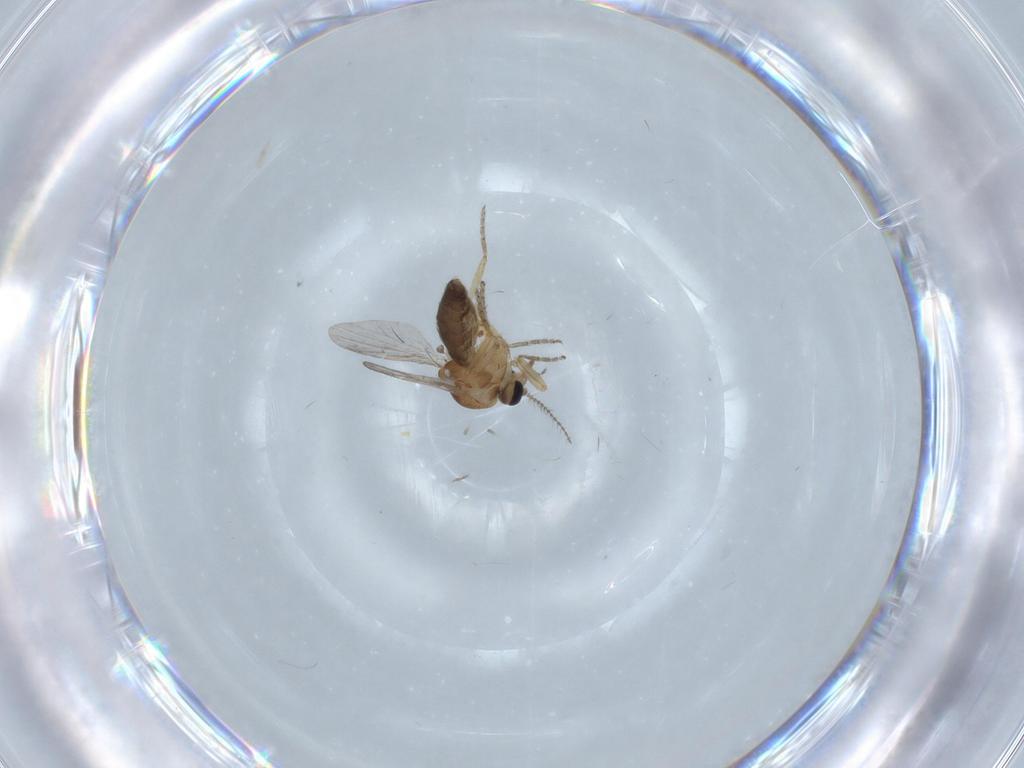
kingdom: Animalia
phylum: Arthropoda
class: Insecta
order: Diptera
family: Ceratopogonidae
